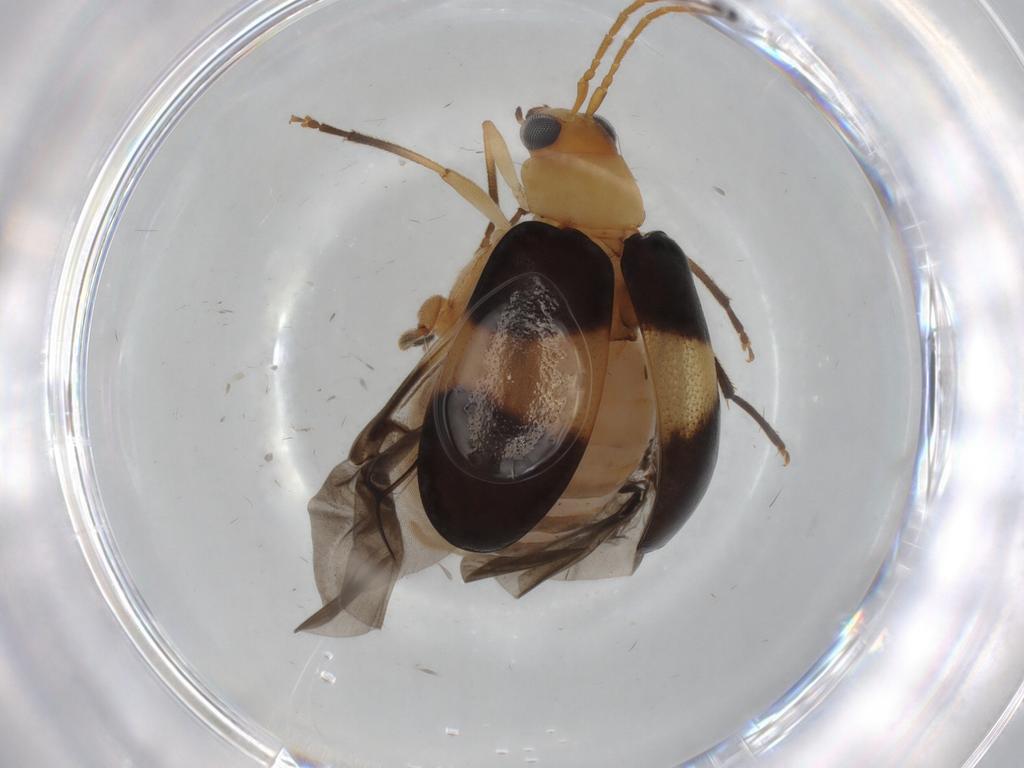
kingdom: Animalia
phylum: Arthropoda
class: Insecta
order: Coleoptera
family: Chrysomelidae
